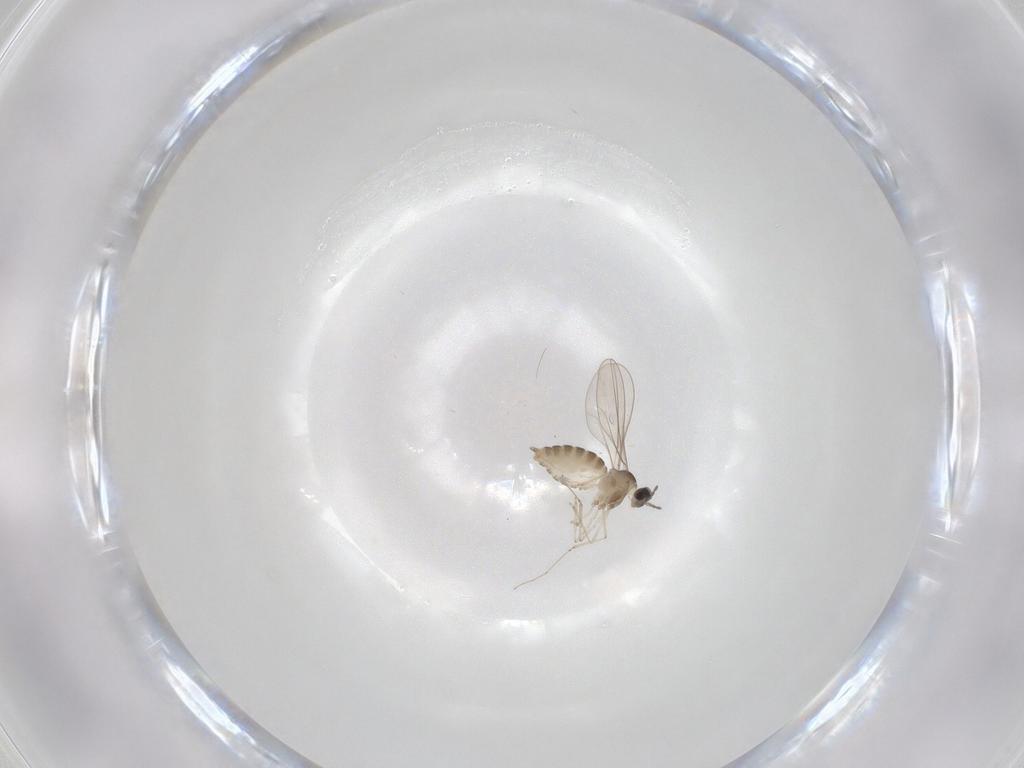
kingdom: Animalia
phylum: Arthropoda
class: Insecta
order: Diptera
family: Cecidomyiidae
